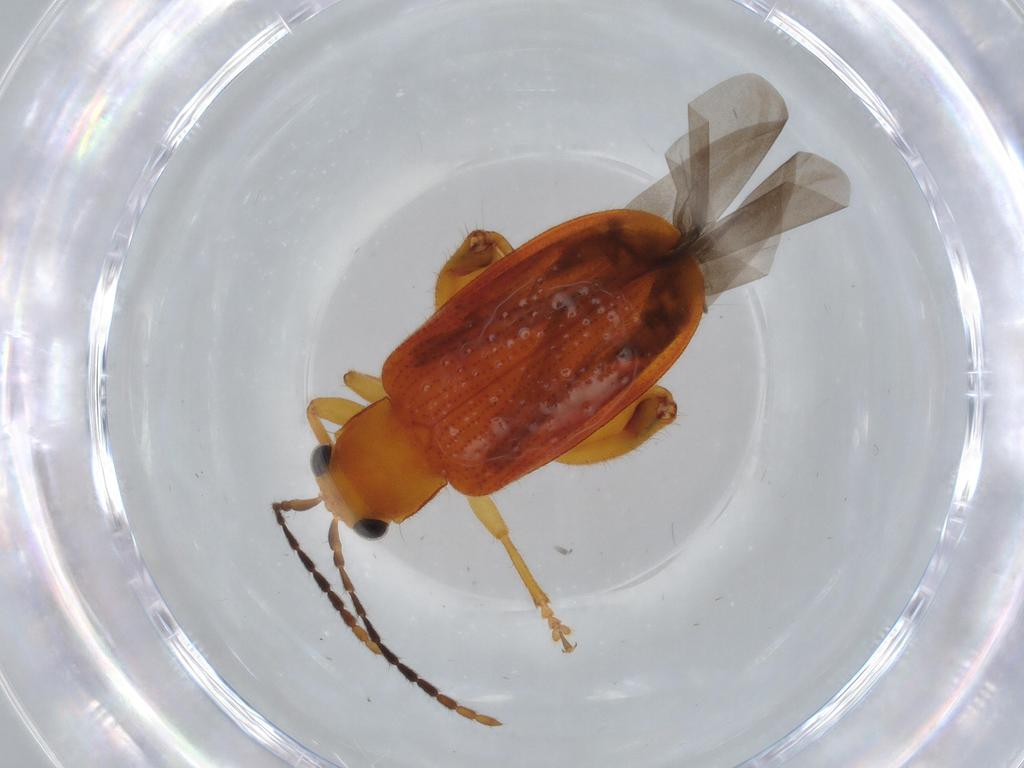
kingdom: Animalia
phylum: Arthropoda
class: Insecta
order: Coleoptera
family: Chrysomelidae
